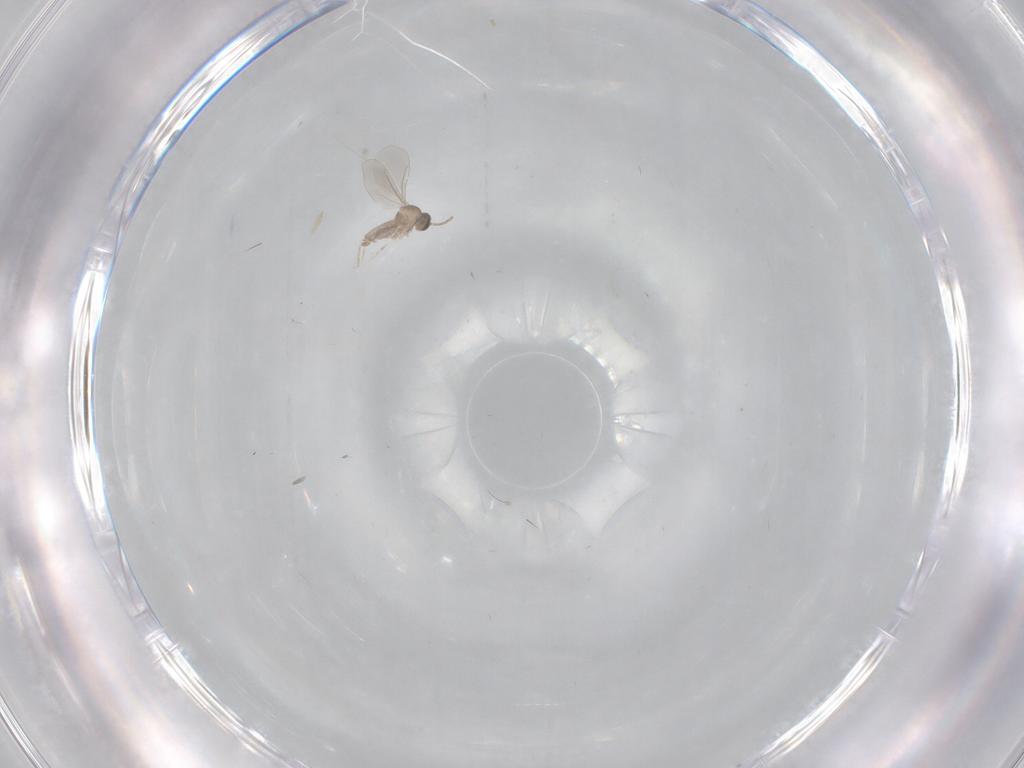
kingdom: Animalia
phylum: Arthropoda
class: Insecta
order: Diptera
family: Cecidomyiidae
